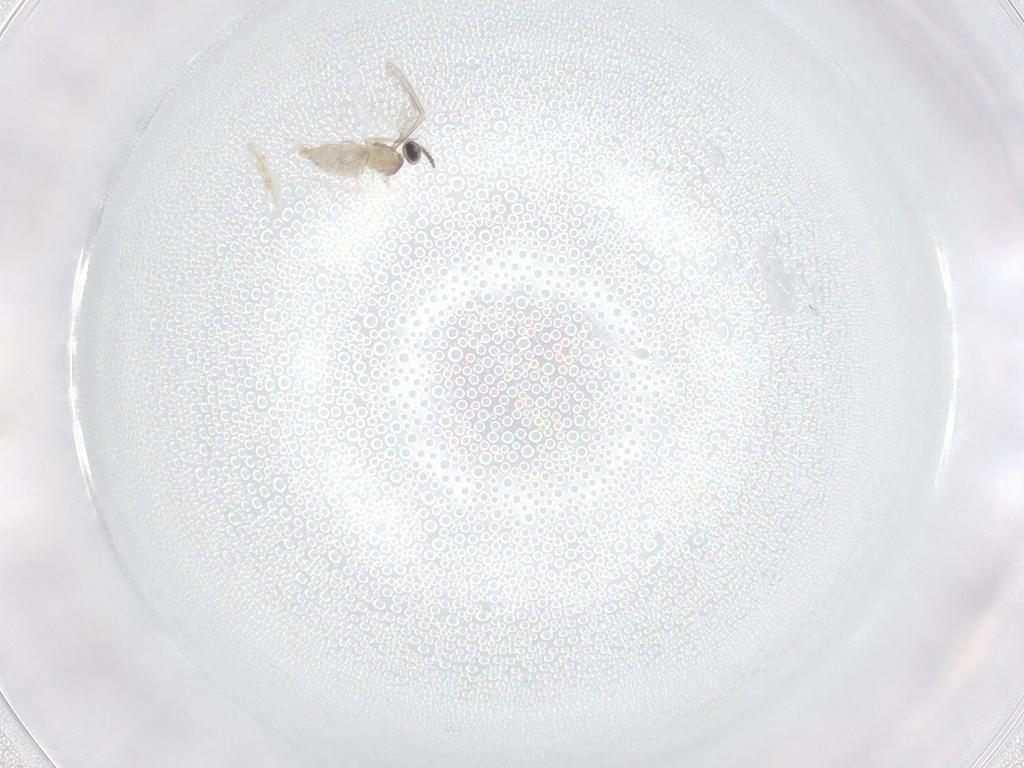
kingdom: Animalia
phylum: Arthropoda
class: Insecta
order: Diptera
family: Cecidomyiidae
